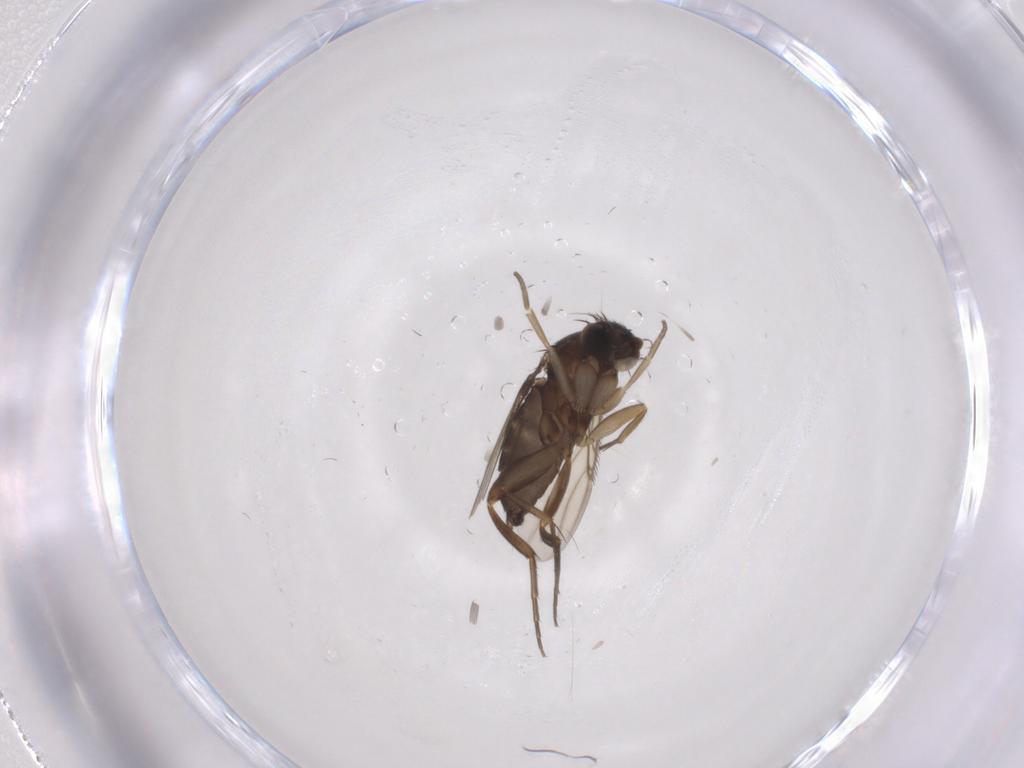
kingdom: Animalia
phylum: Arthropoda
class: Insecta
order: Diptera
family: Phoridae
